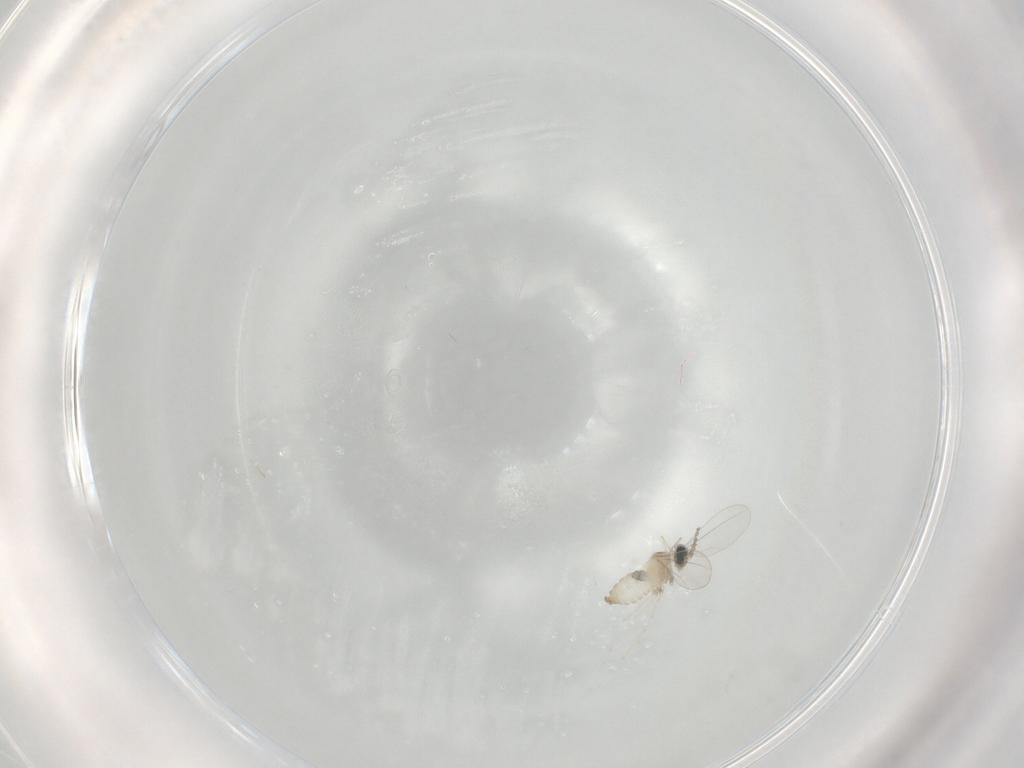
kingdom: Animalia
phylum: Arthropoda
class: Insecta
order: Diptera
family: Cecidomyiidae
